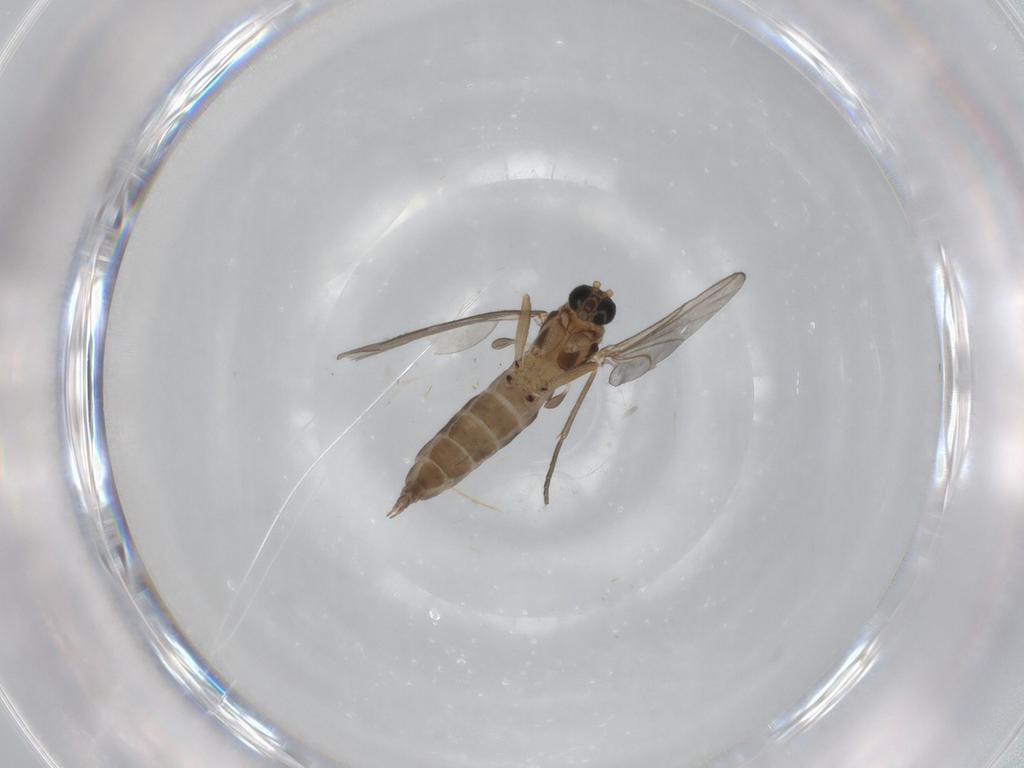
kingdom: Animalia
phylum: Arthropoda
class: Insecta
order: Diptera
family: Sciaridae
